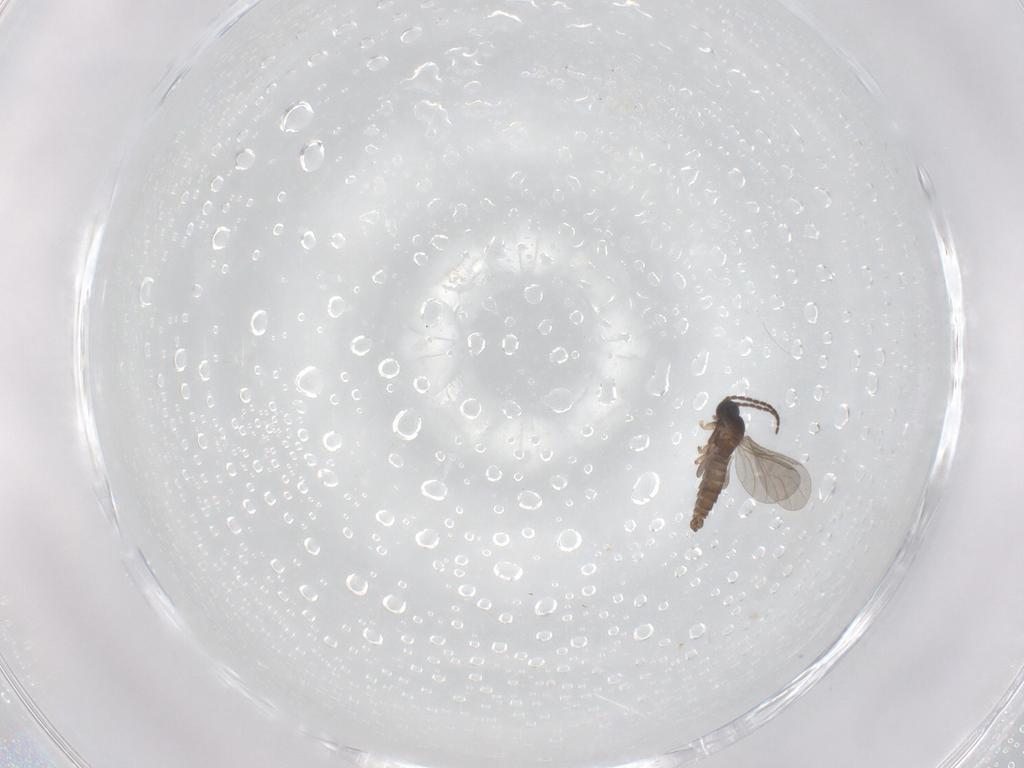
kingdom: Animalia
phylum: Arthropoda
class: Insecta
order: Diptera
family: Sciaridae
